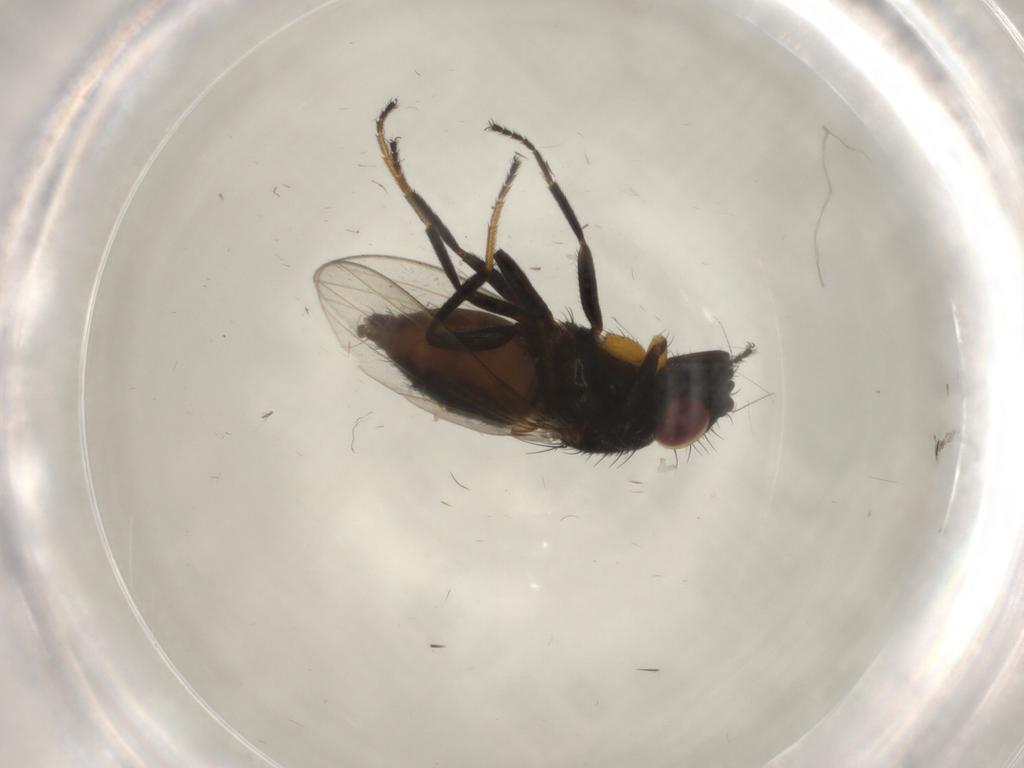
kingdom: Animalia
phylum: Arthropoda
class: Insecta
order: Diptera
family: Milichiidae
